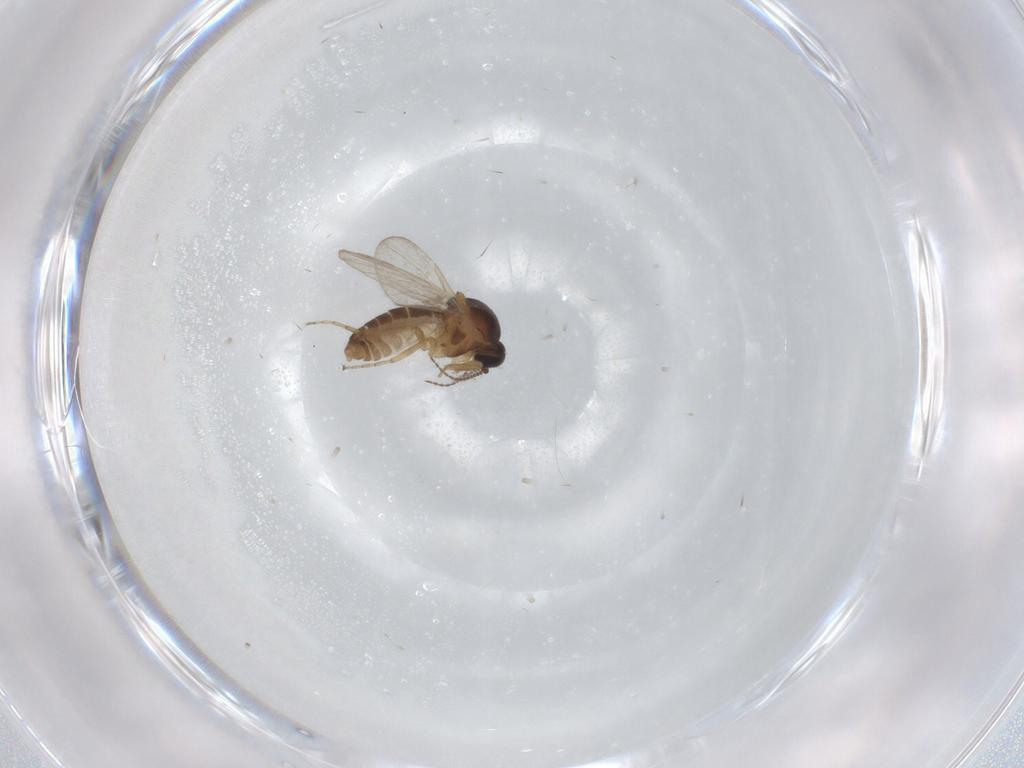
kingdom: Animalia
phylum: Arthropoda
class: Insecta
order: Diptera
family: Ceratopogonidae
